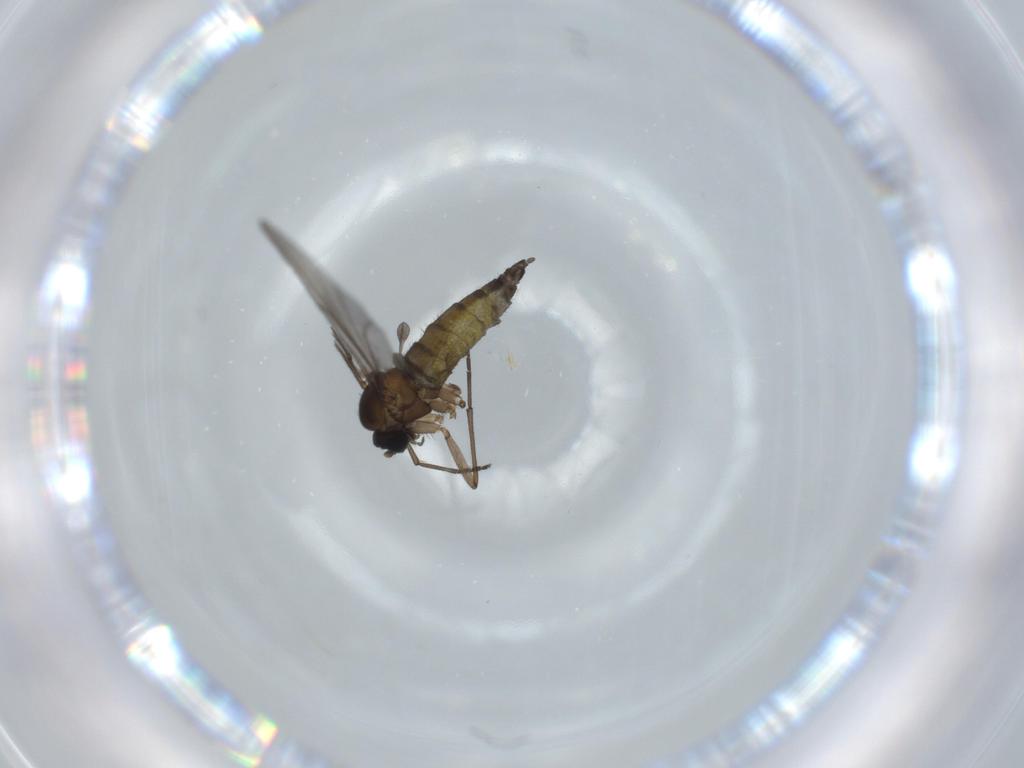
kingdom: Animalia
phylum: Arthropoda
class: Insecta
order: Diptera
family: Sciaridae
